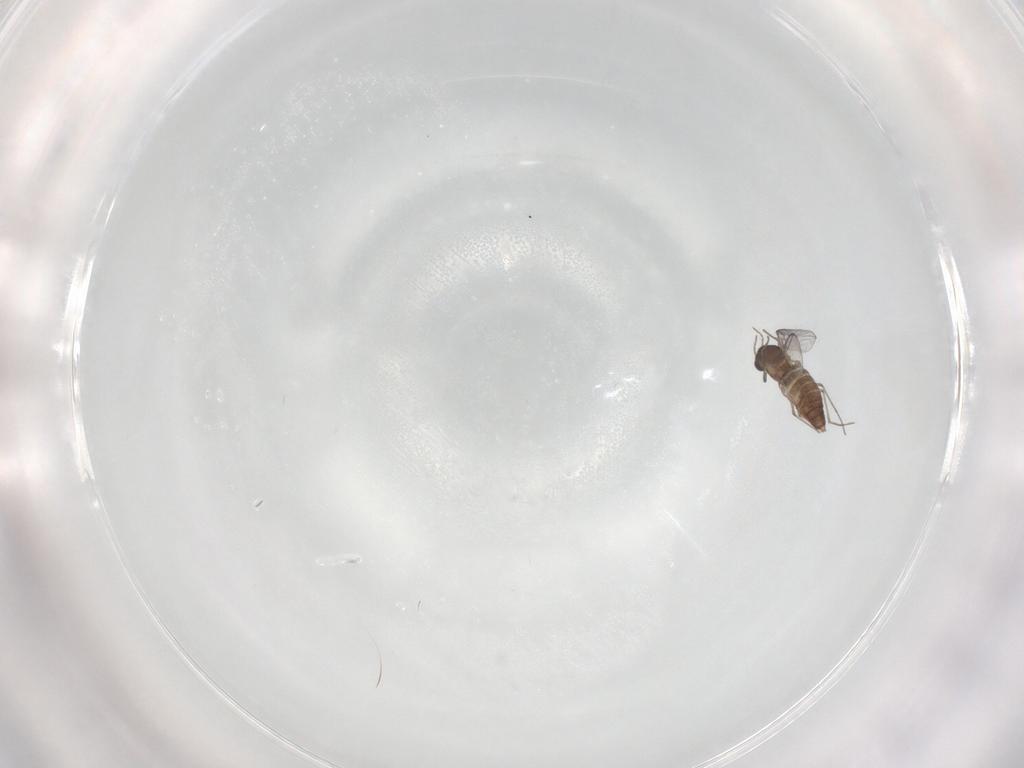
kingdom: Animalia
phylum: Arthropoda
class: Insecta
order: Diptera
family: Chironomidae
